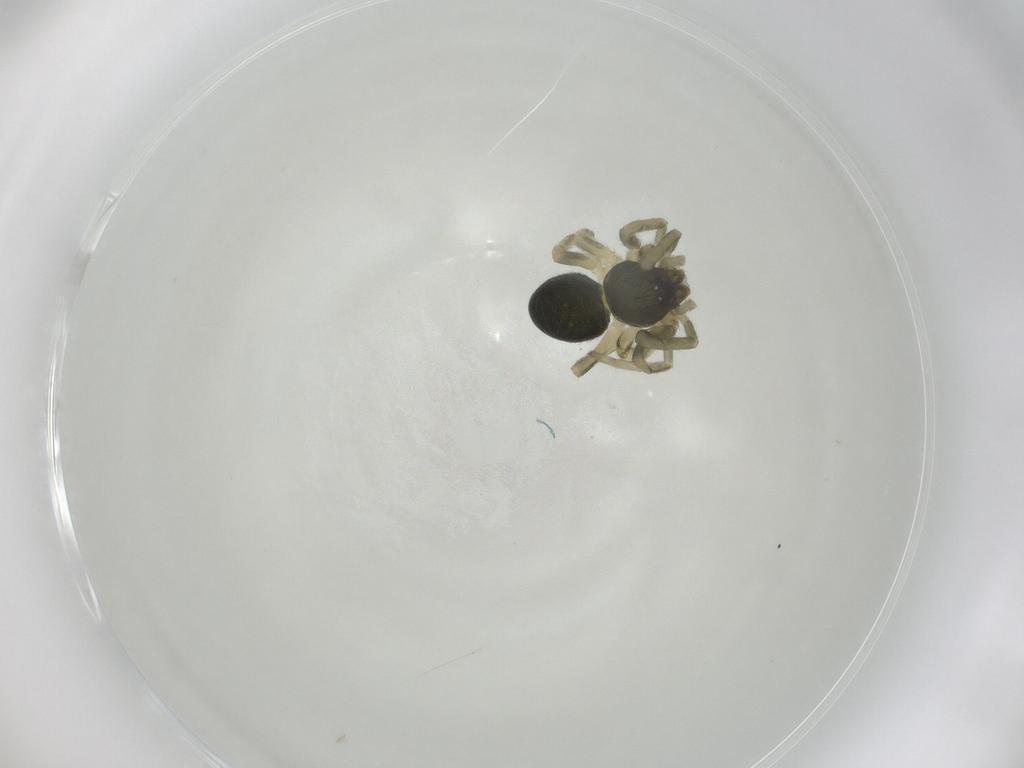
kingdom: Animalia
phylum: Arthropoda
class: Arachnida
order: Araneae
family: Trachelidae
